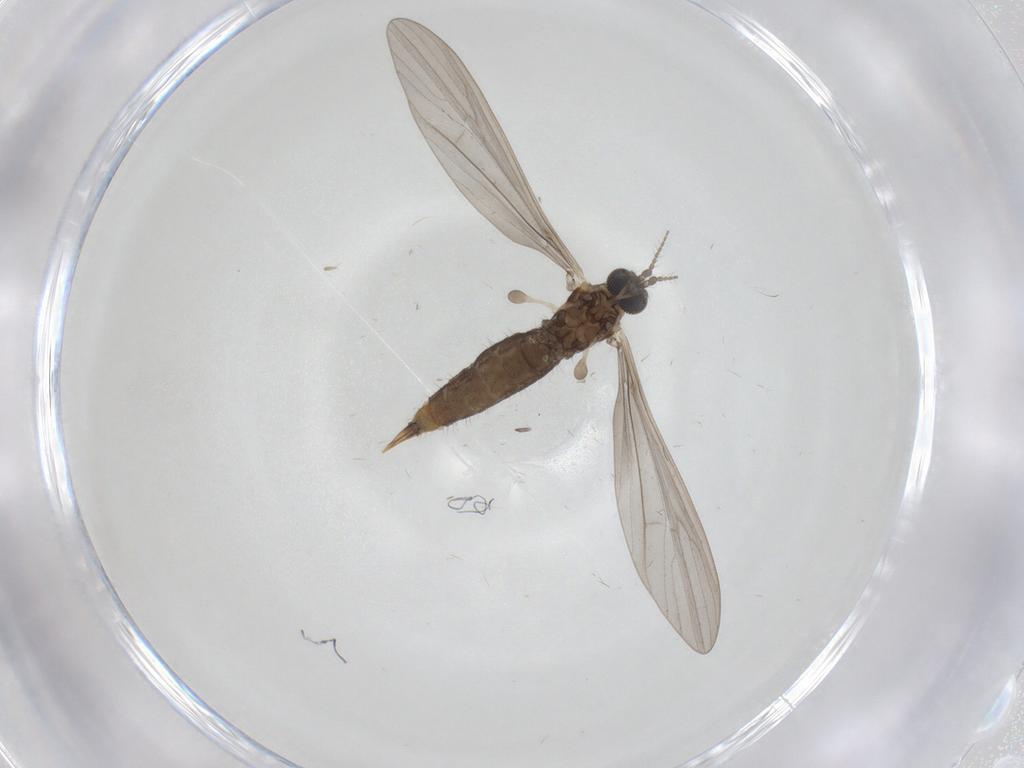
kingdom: Animalia
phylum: Arthropoda
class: Insecta
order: Diptera
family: Limoniidae
